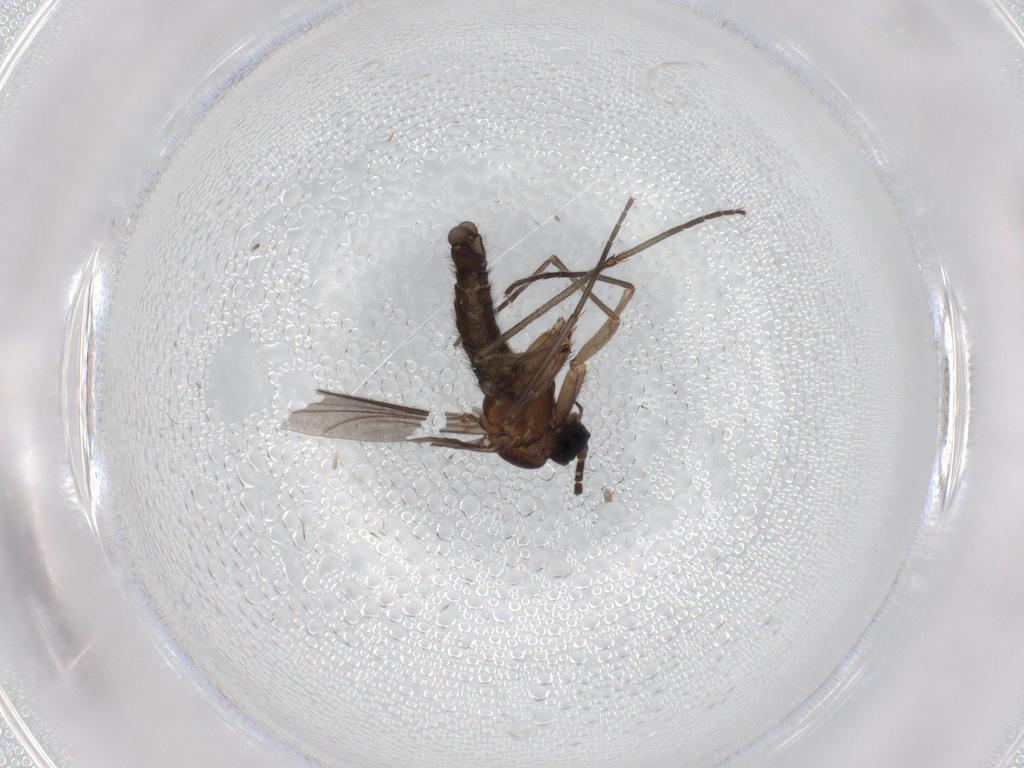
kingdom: Animalia
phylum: Arthropoda
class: Insecta
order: Diptera
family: Sciaridae
